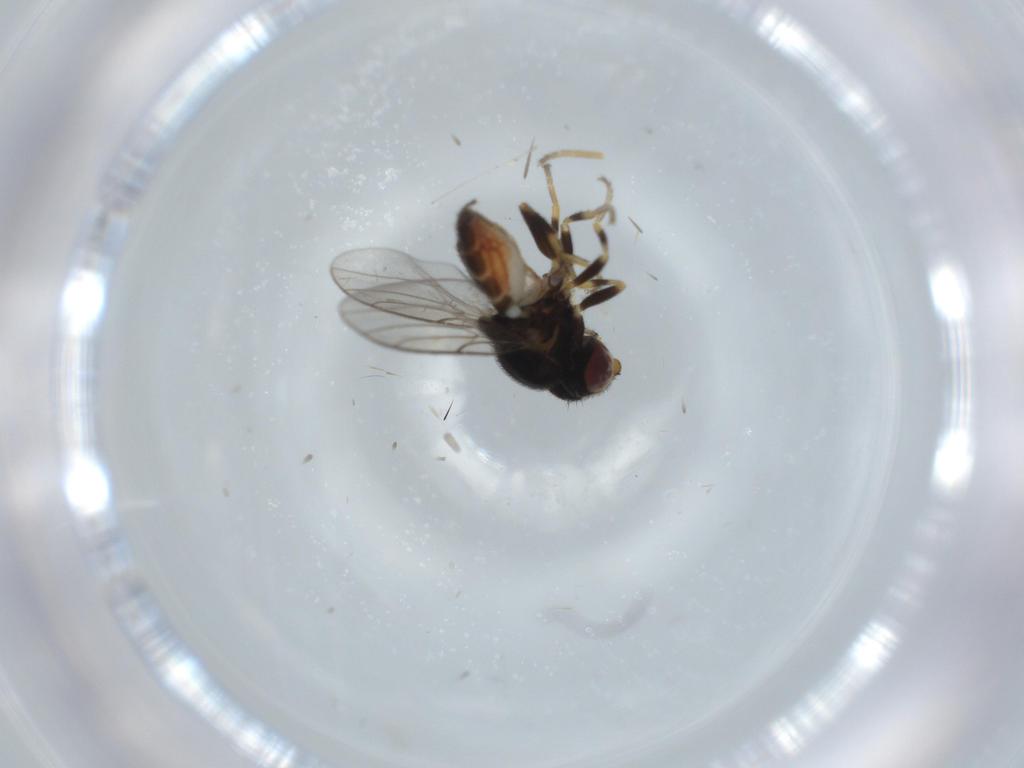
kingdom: Animalia
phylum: Arthropoda
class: Insecta
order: Diptera
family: Chloropidae
